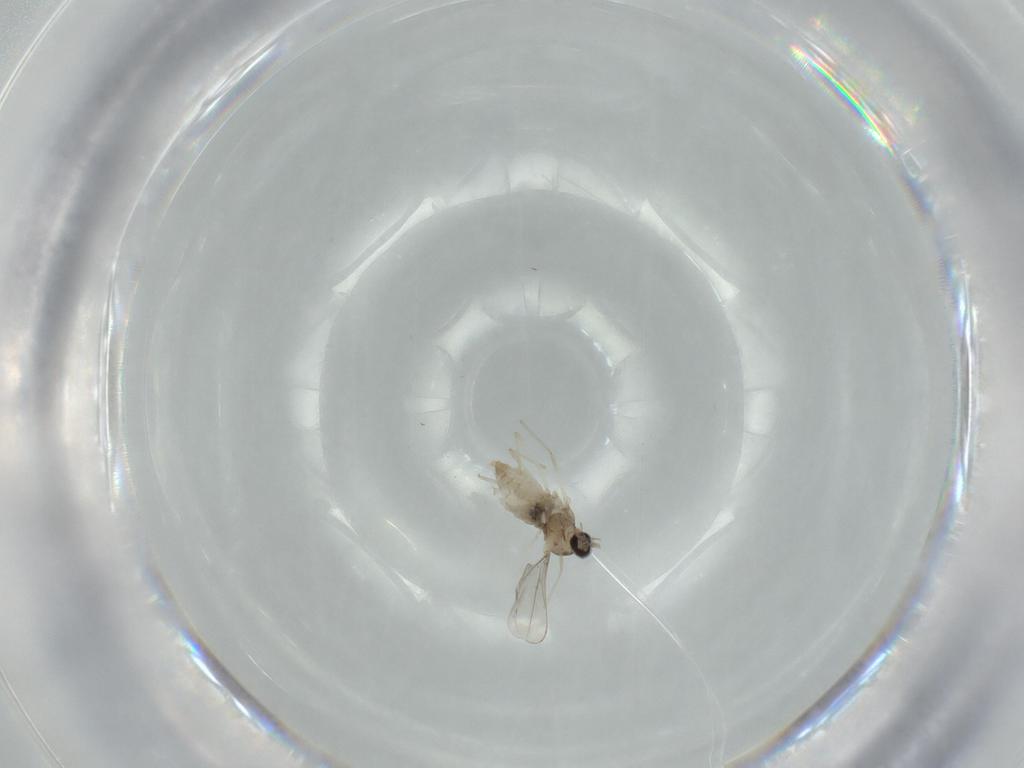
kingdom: Animalia
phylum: Arthropoda
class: Insecta
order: Diptera
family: Cecidomyiidae
